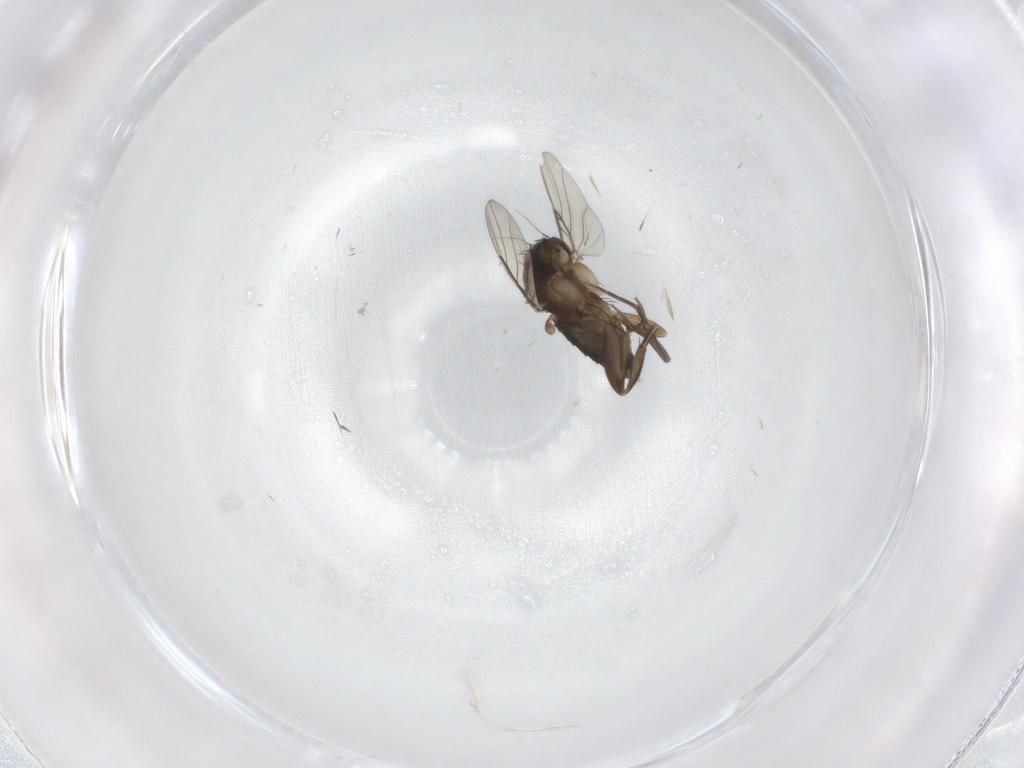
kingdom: Animalia
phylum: Arthropoda
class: Insecta
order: Diptera
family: Phoridae
